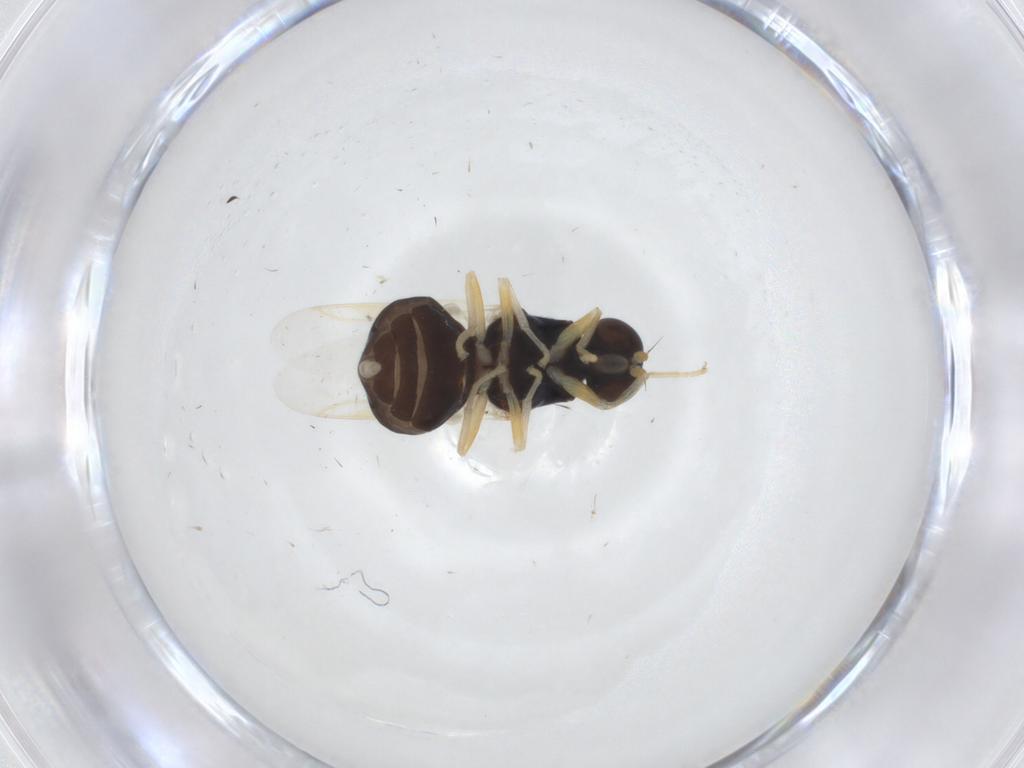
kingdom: Animalia
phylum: Arthropoda
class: Insecta
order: Diptera
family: Stratiomyidae
